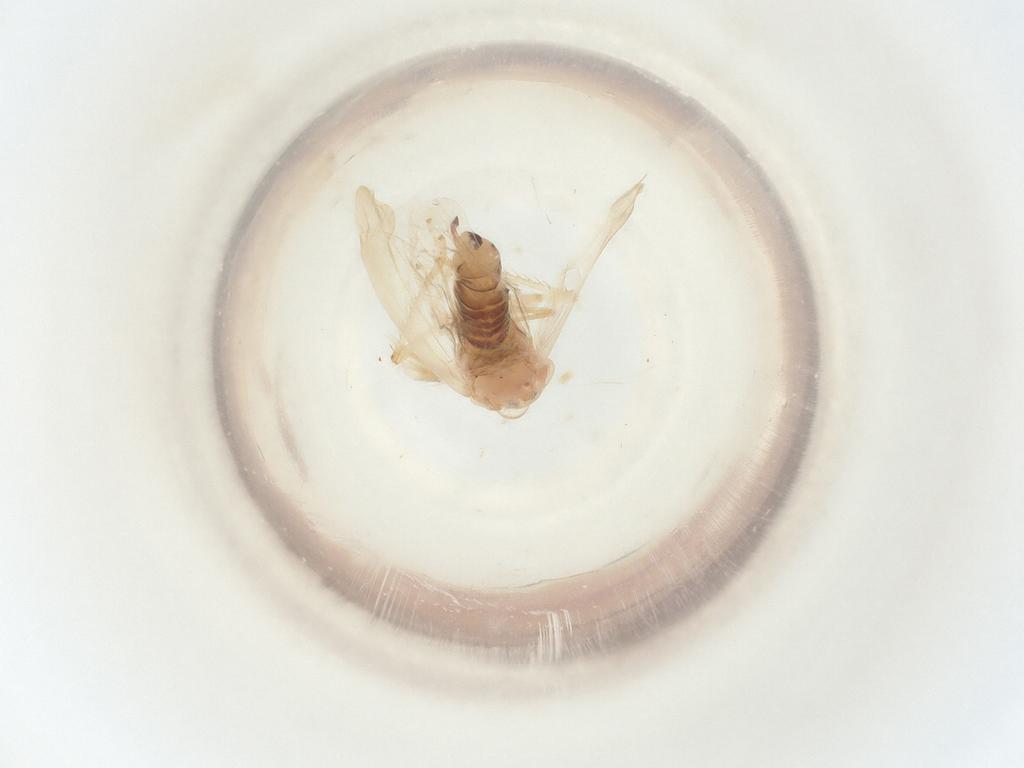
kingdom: Animalia
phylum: Arthropoda
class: Insecta
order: Hemiptera
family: Cicadellidae
